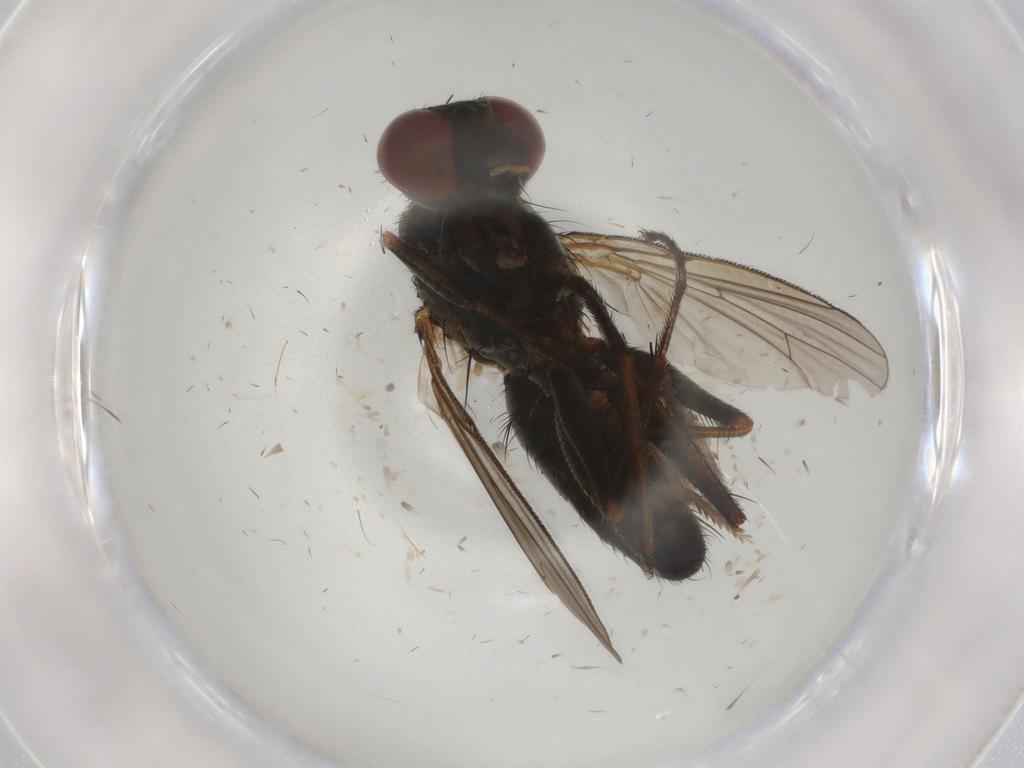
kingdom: Animalia
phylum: Arthropoda
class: Insecta
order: Diptera
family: Muscidae
